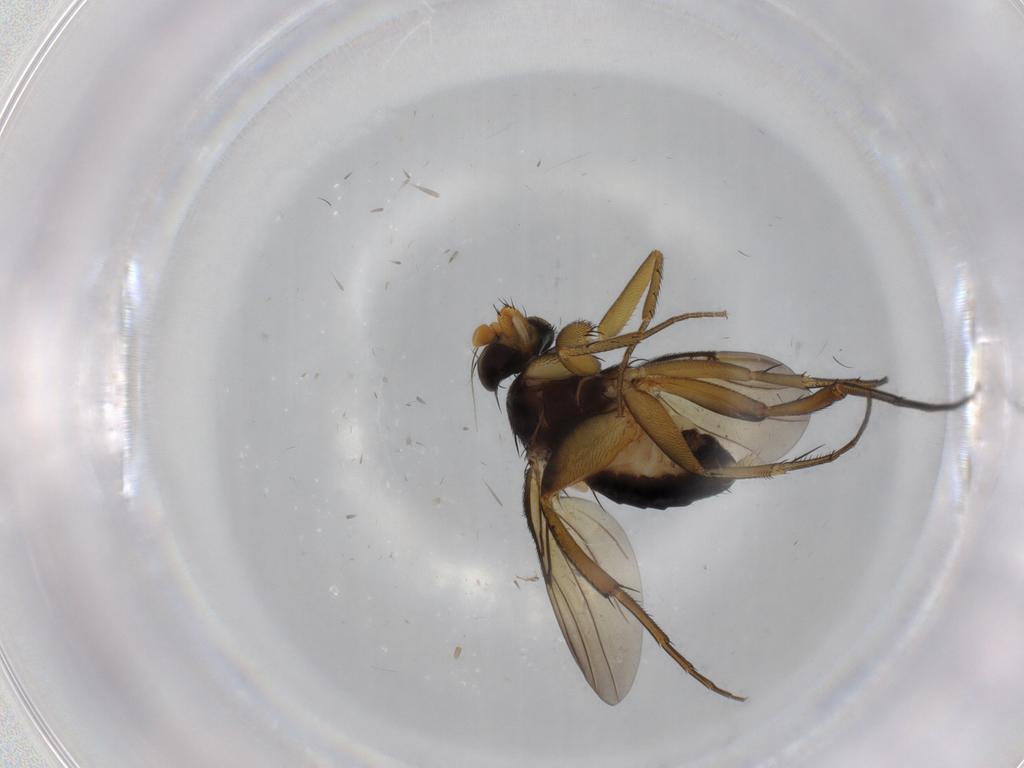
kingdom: Animalia
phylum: Arthropoda
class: Insecta
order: Diptera
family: Phoridae
